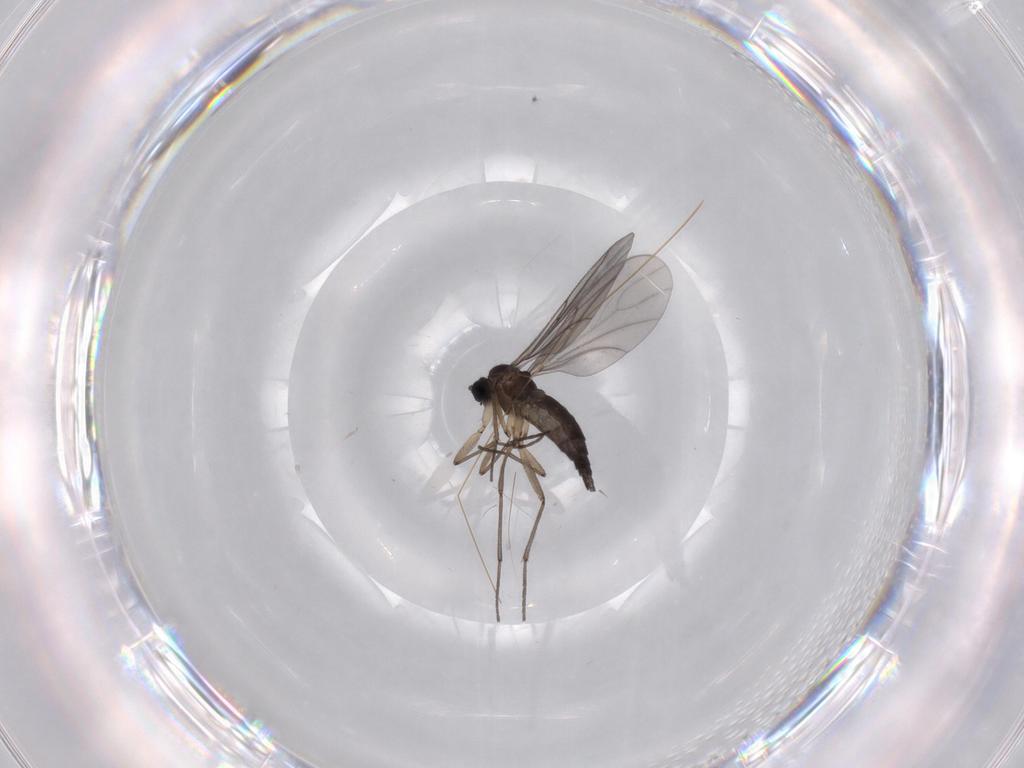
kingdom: Animalia
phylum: Arthropoda
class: Insecta
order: Diptera
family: Sciaridae
